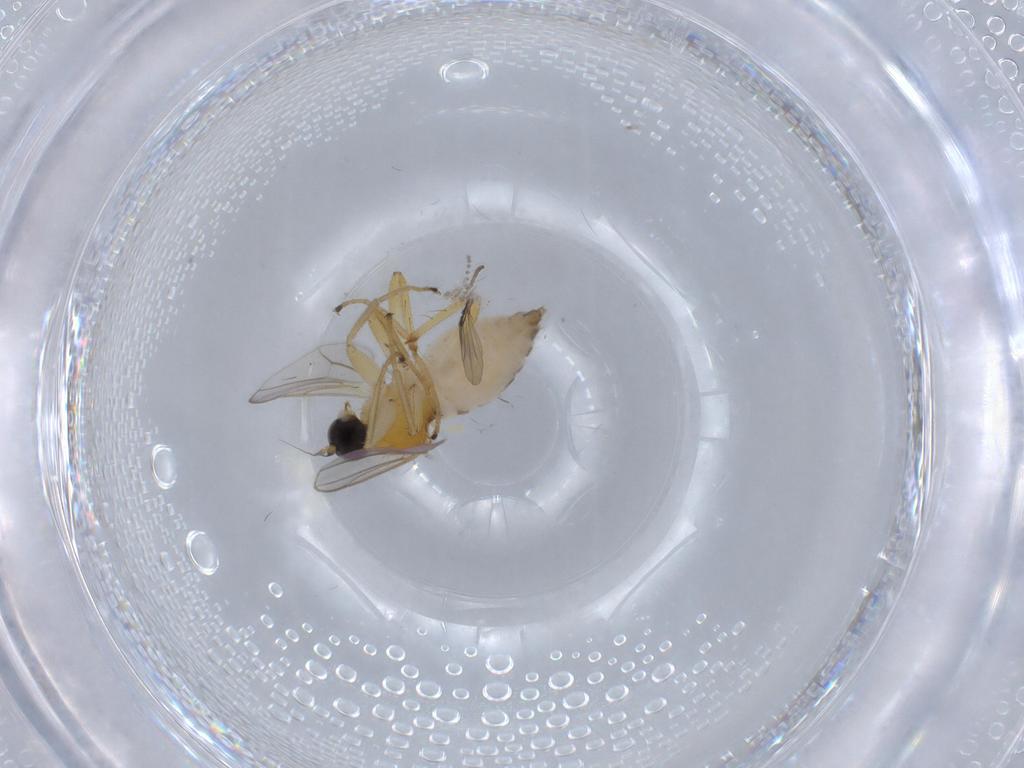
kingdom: Animalia
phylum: Arthropoda
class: Insecta
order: Diptera
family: Hybotidae
